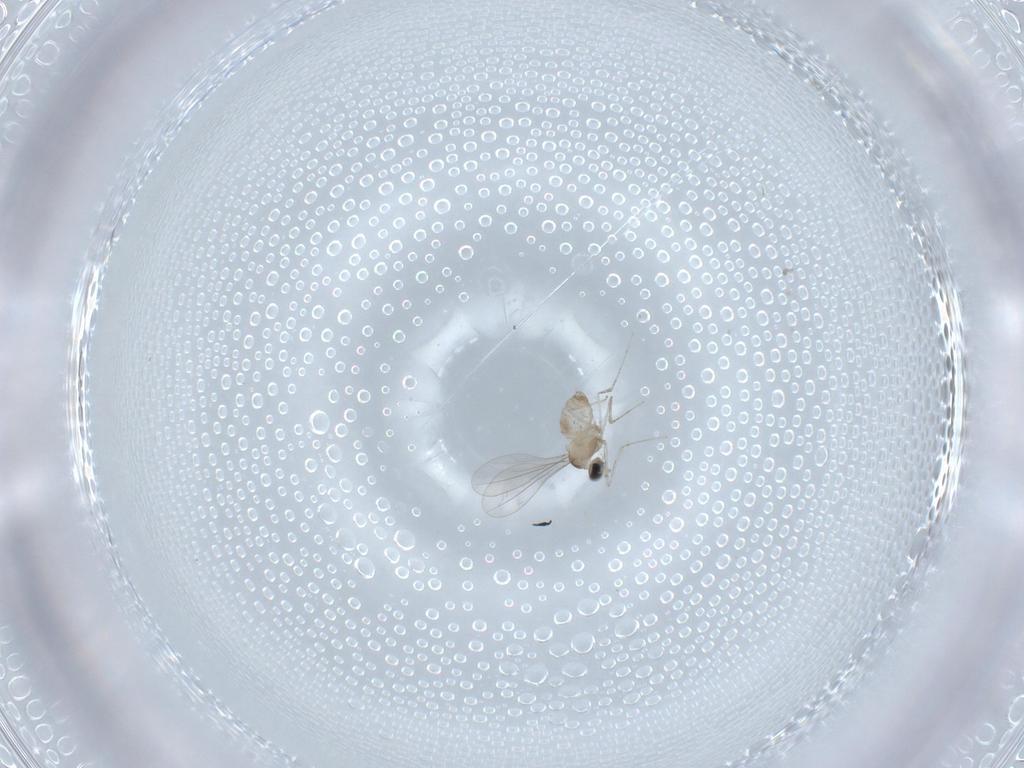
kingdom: Animalia
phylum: Arthropoda
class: Insecta
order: Diptera
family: Cecidomyiidae
